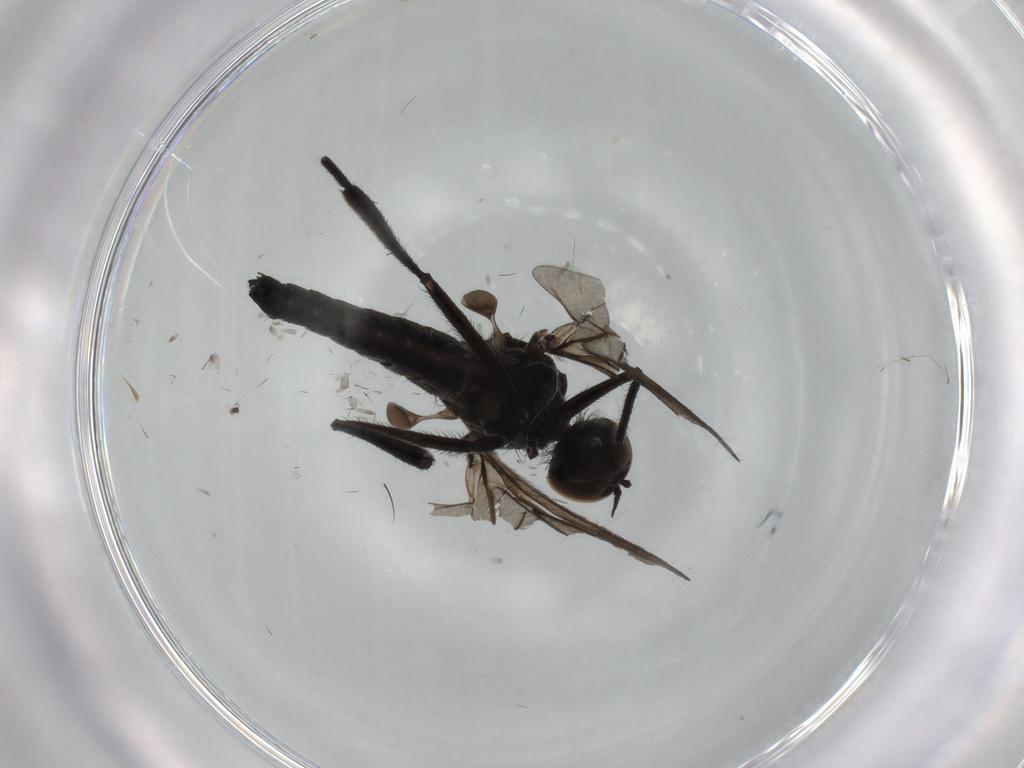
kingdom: Animalia
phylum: Arthropoda
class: Insecta
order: Diptera
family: Hybotidae
